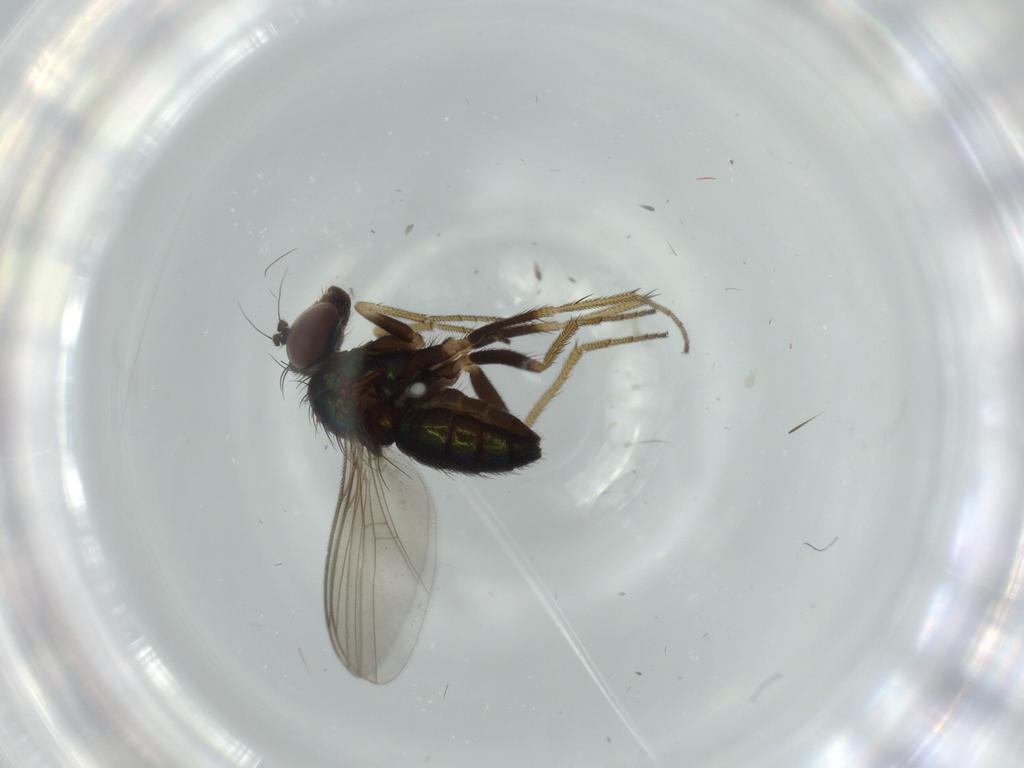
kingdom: Animalia
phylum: Arthropoda
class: Insecta
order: Diptera
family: Dolichopodidae
